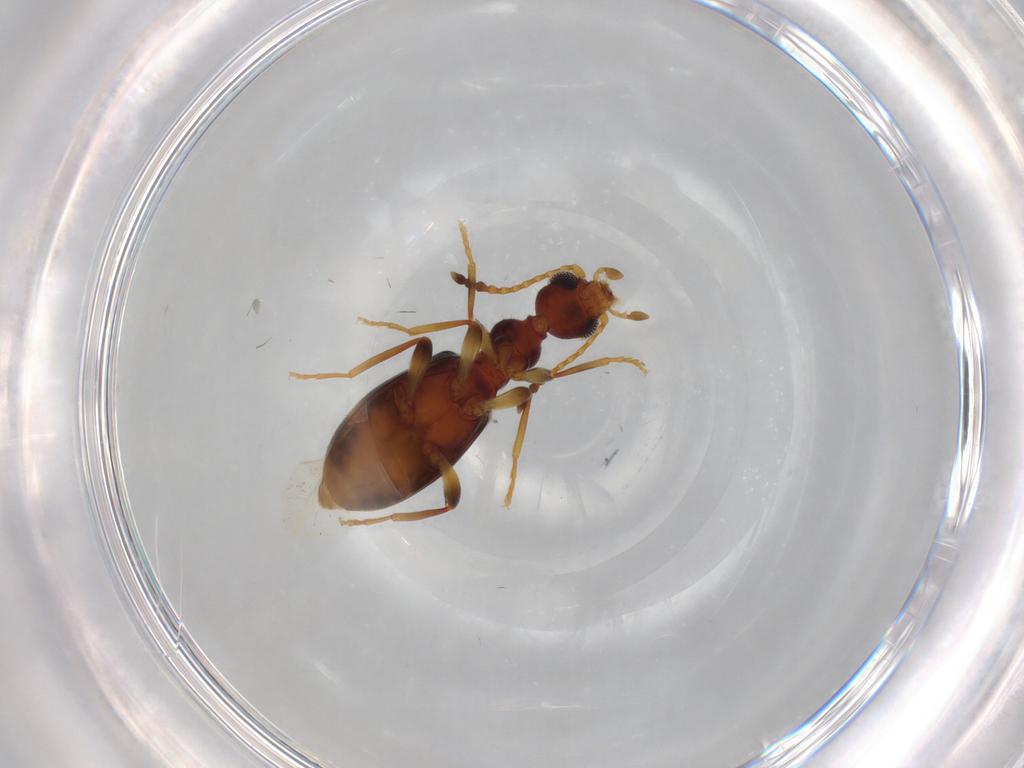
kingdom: Animalia
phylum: Arthropoda
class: Insecta
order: Coleoptera
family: Anthicidae
